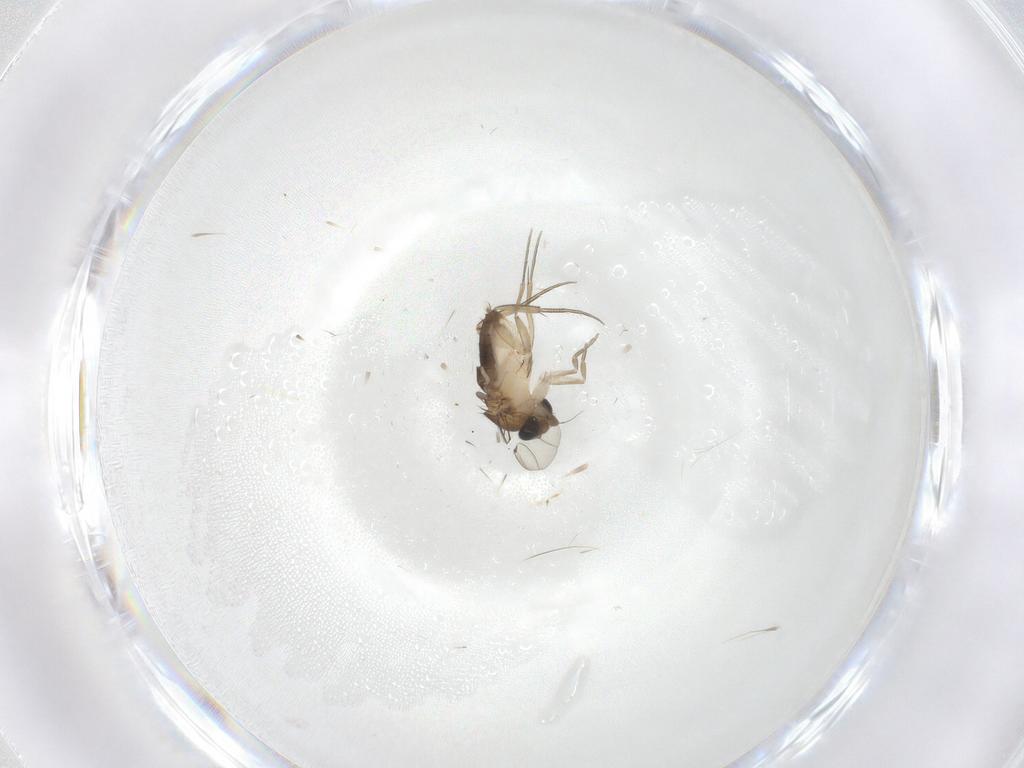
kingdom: Animalia
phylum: Arthropoda
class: Insecta
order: Diptera
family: Phoridae
